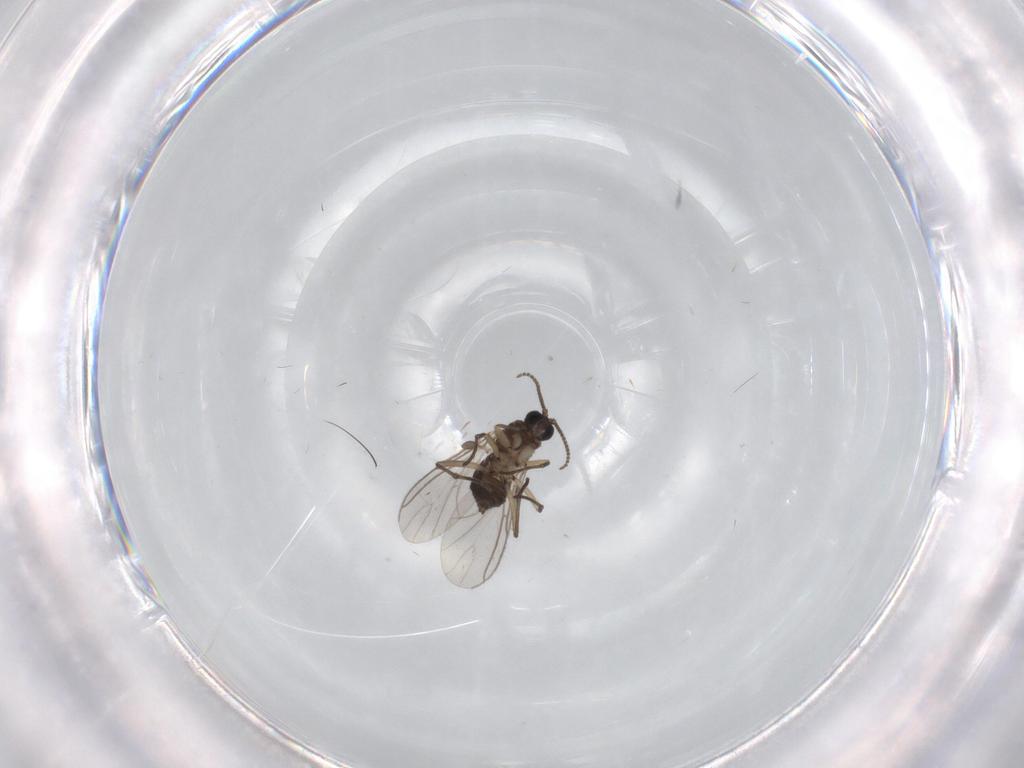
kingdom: Animalia
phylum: Arthropoda
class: Insecta
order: Diptera
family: Sciaridae
